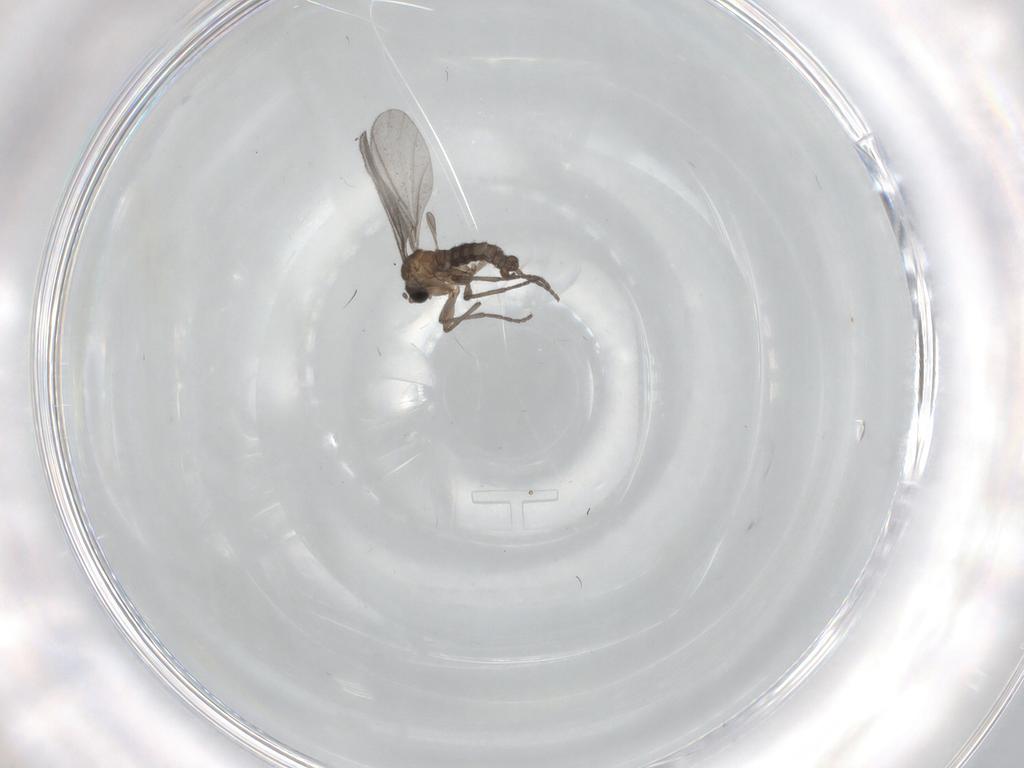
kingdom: Animalia
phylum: Arthropoda
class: Insecta
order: Diptera
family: Sciaridae
